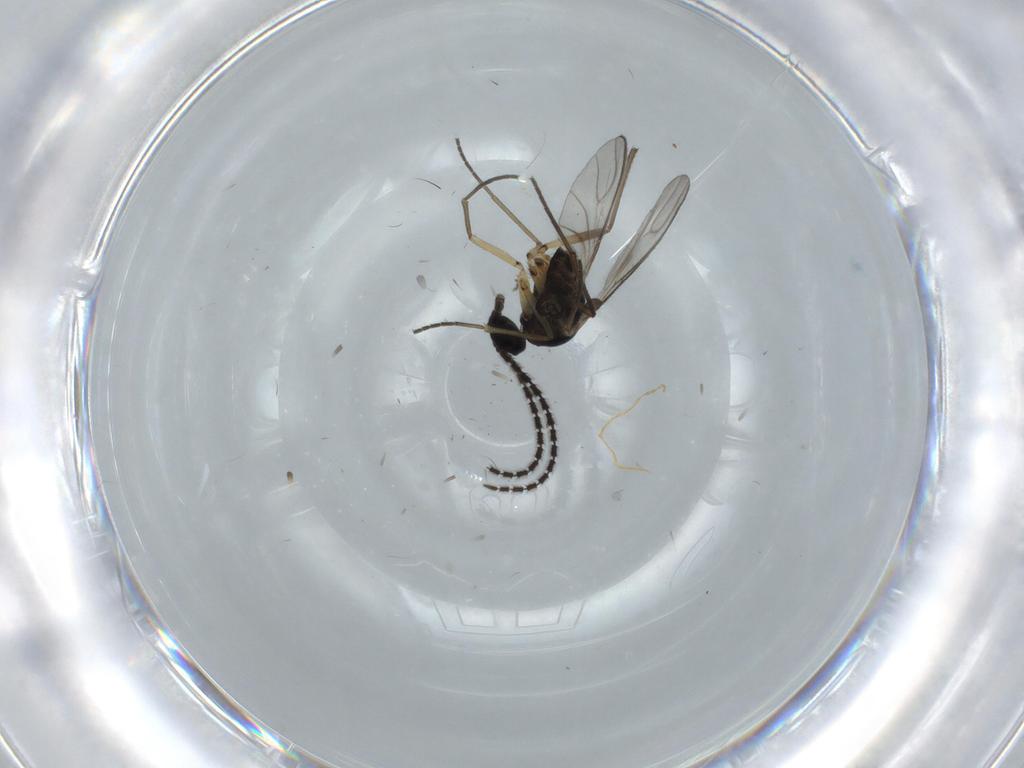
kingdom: Animalia
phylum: Arthropoda
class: Insecta
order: Diptera
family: Sciaridae
